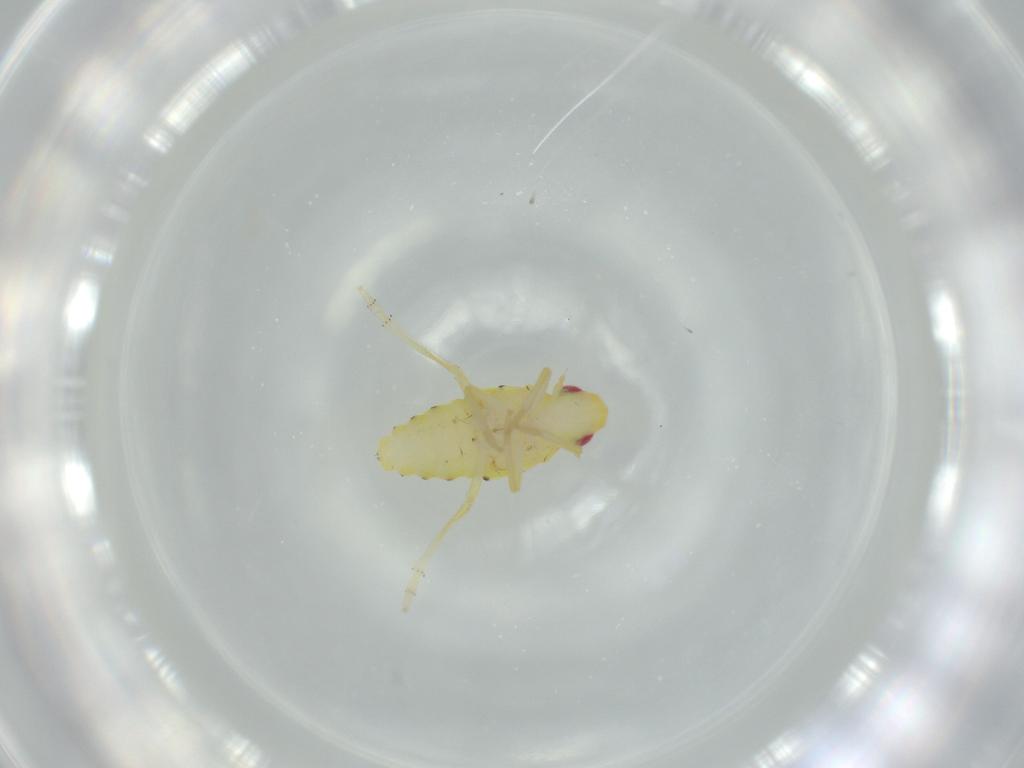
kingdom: Animalia
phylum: Arthropoda
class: Insecta
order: Hemiptera
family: Tropiduchidae
